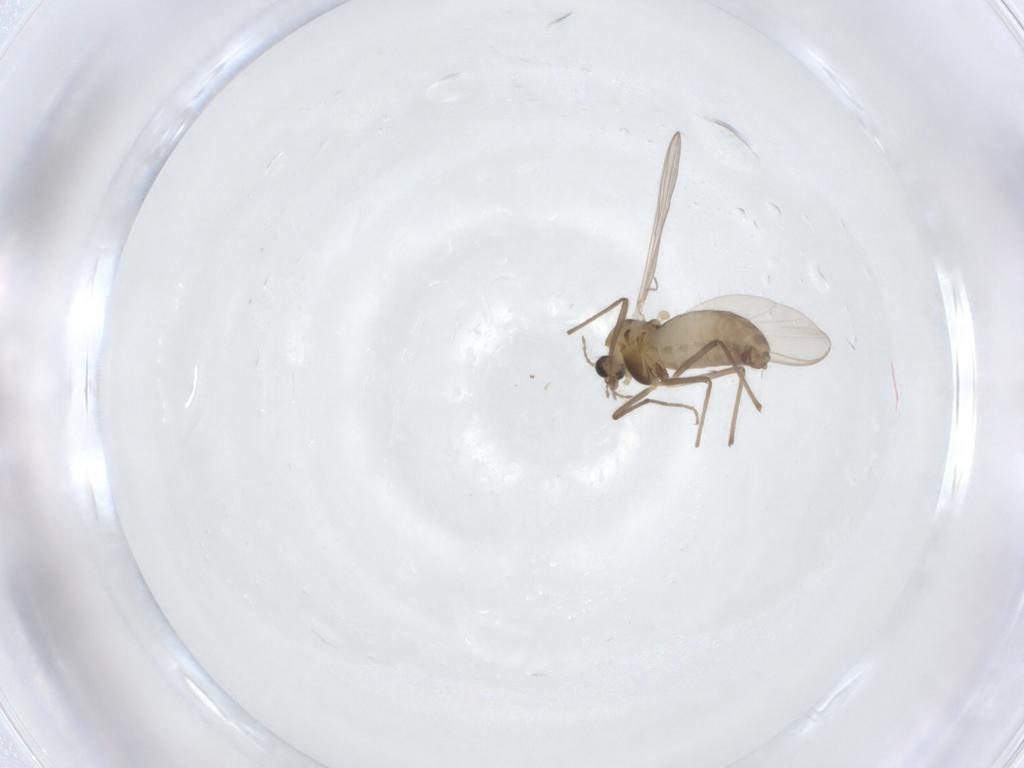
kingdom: Animalia
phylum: Arthropoda
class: Insecta
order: Diptera
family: Chironomidae
